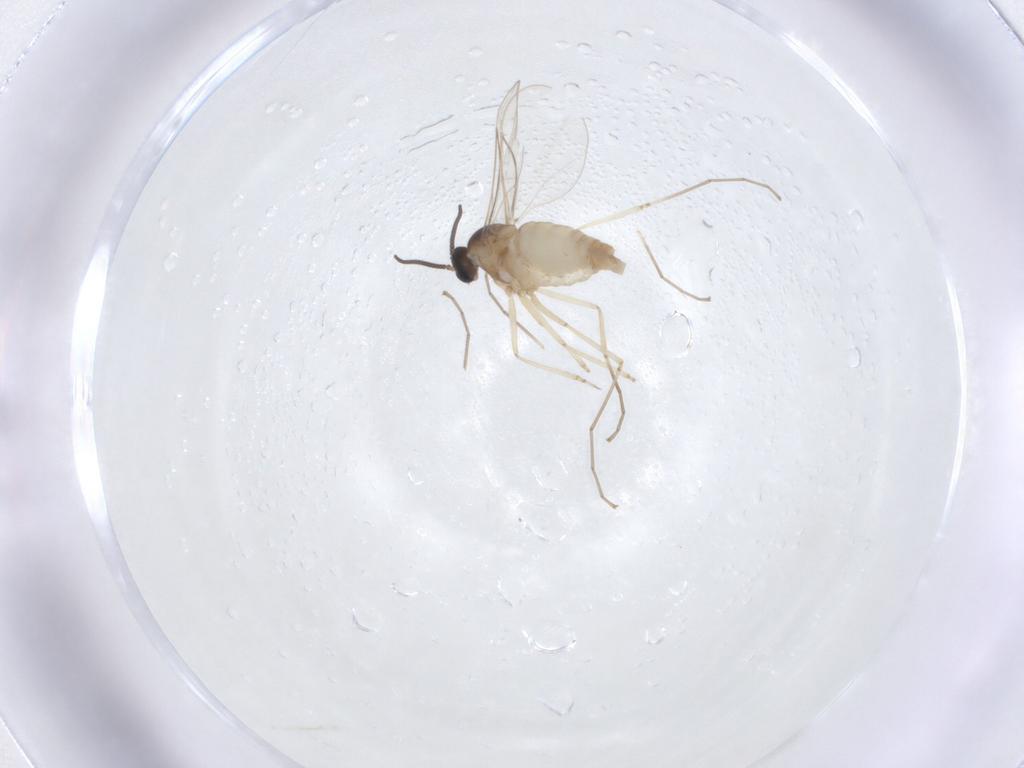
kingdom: Animalia
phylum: Arthropoda
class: Insecta
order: Diptera
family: Cecidomyiidae
